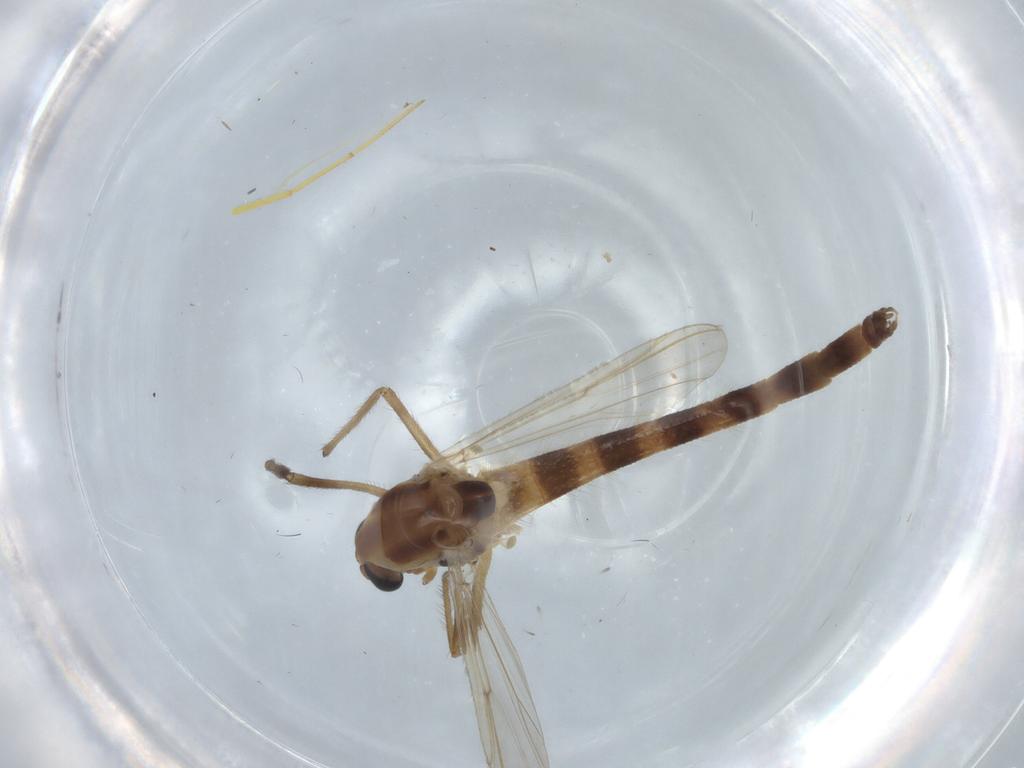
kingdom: Animalia
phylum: Arthropoda
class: Insecta
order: Diptera
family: Chironomidae
